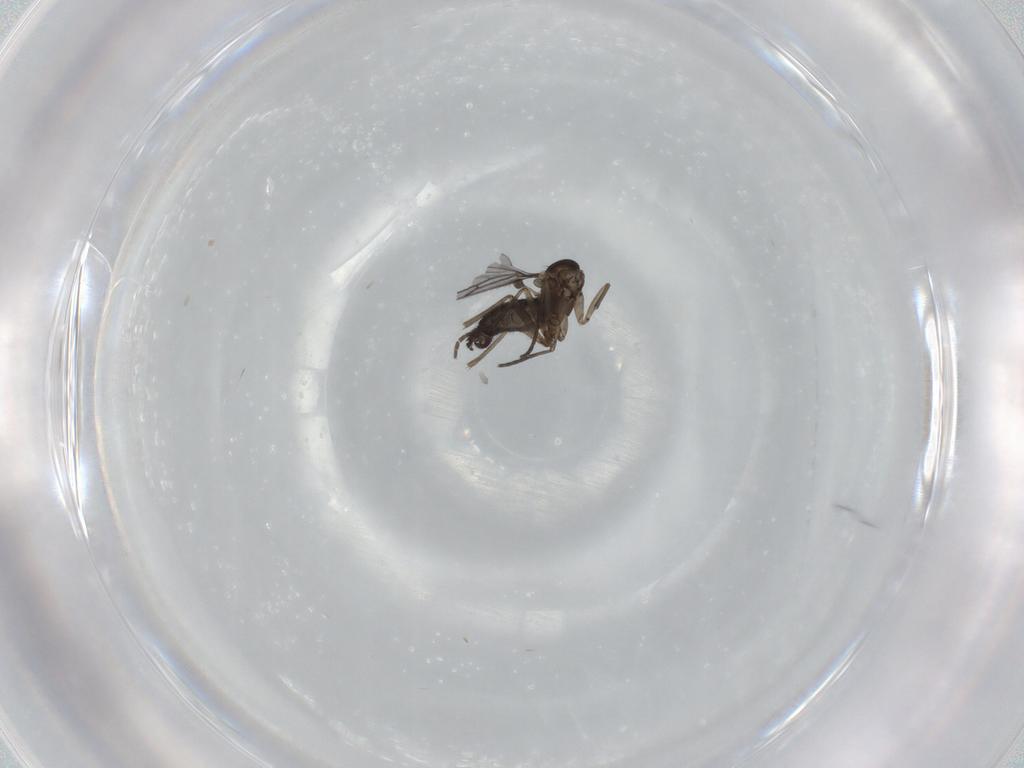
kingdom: Animalia
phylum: Arthropoda
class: Insecta
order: Diptera
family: Sciaridae
